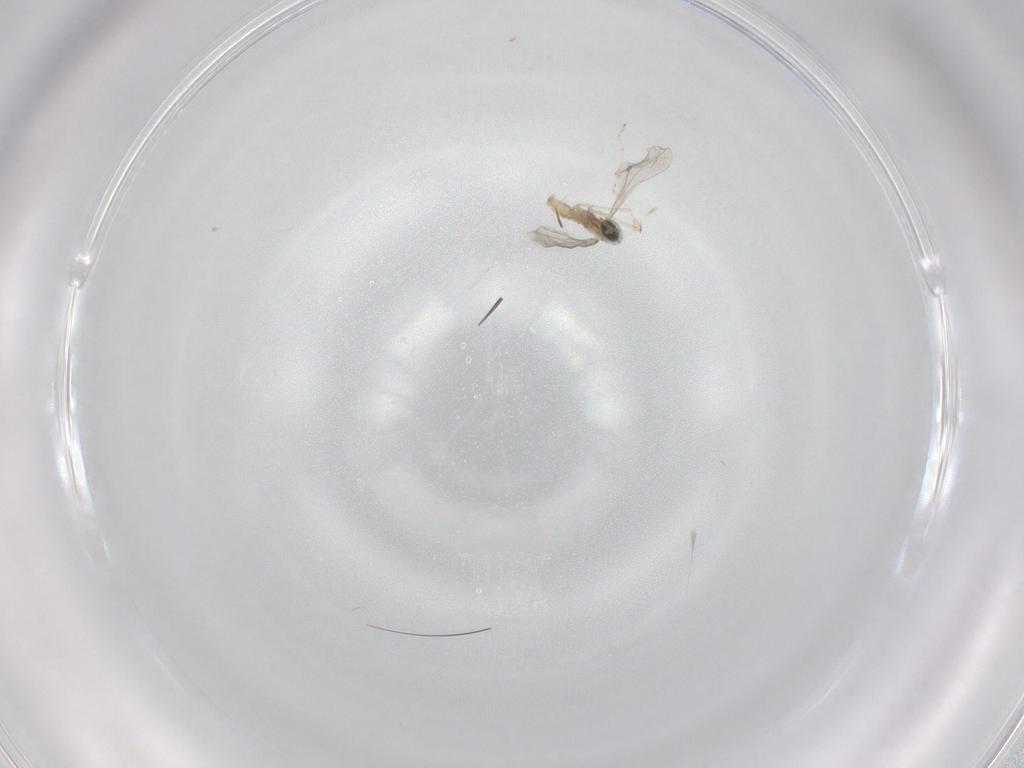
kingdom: Animalia
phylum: Arthropoda
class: Insecta
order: Diptera
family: Cecidomyiidae
